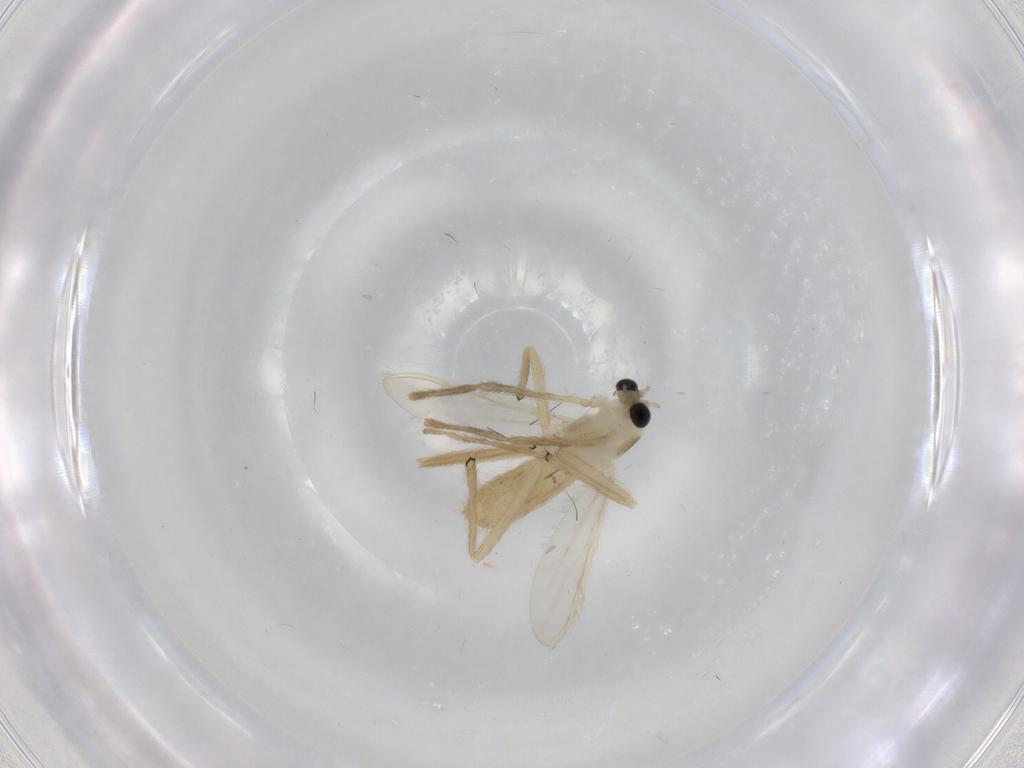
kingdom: Animalia
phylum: Arthropoda
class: Insecta
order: Diptera
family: Chironomidae
